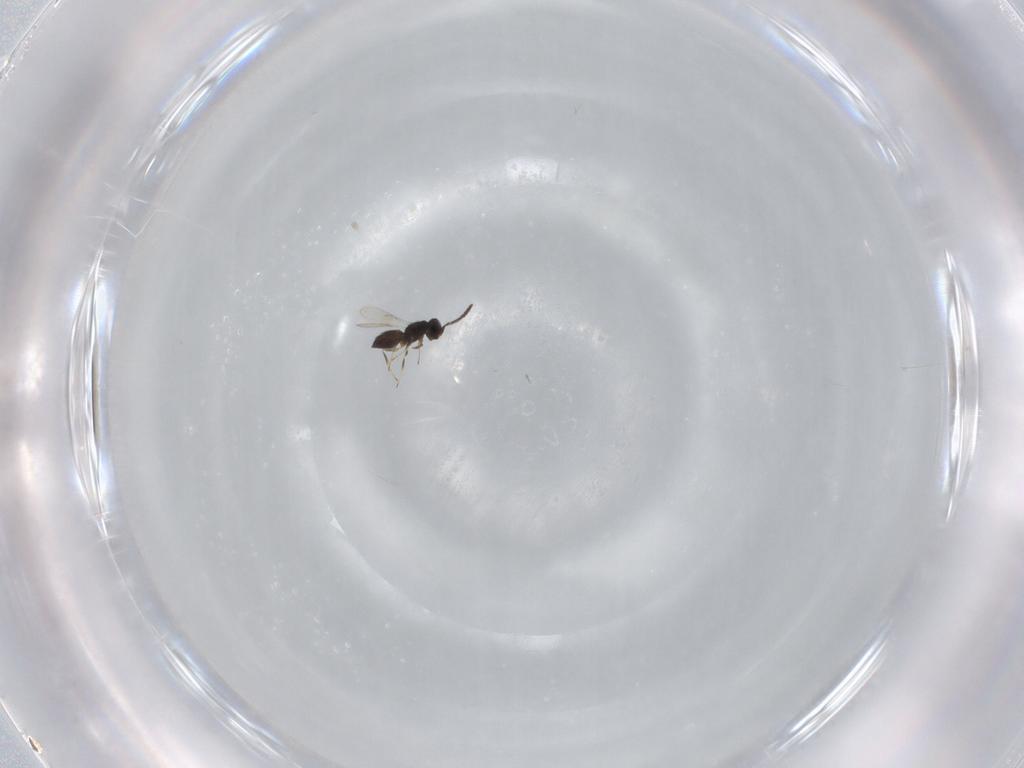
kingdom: Animalia
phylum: Arthropoda
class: Insecta
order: Hymenoptera
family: Scelionidae
